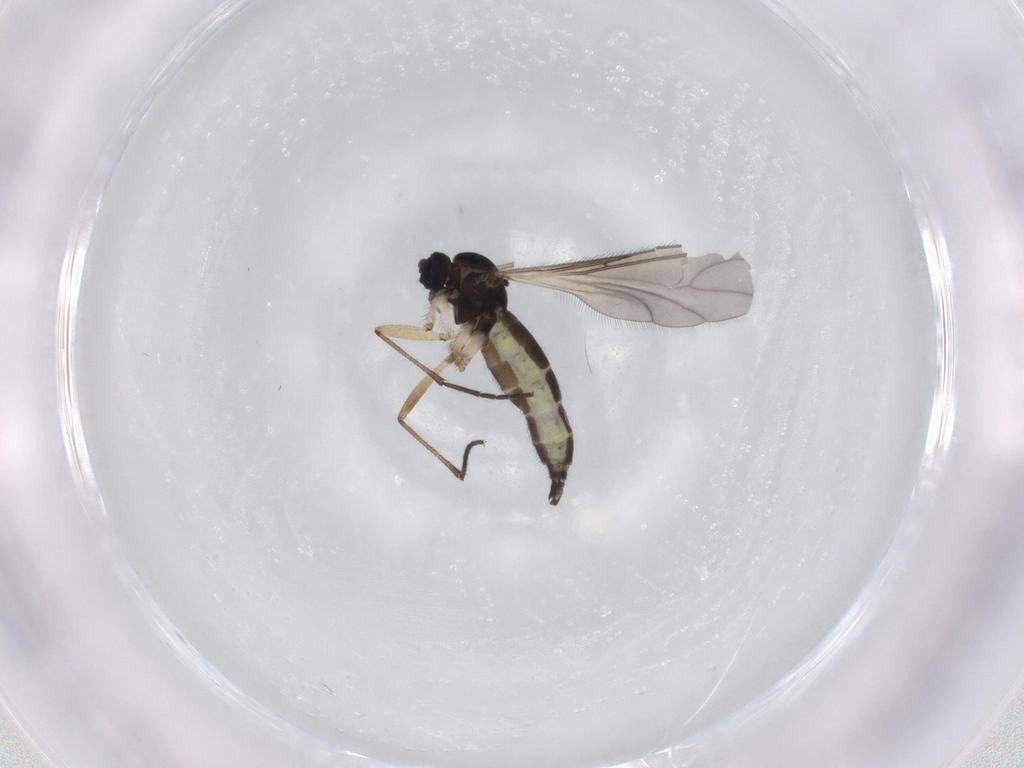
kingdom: Animalia
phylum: Arthropoda
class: Insecta
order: Diptera
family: Sciaridae
